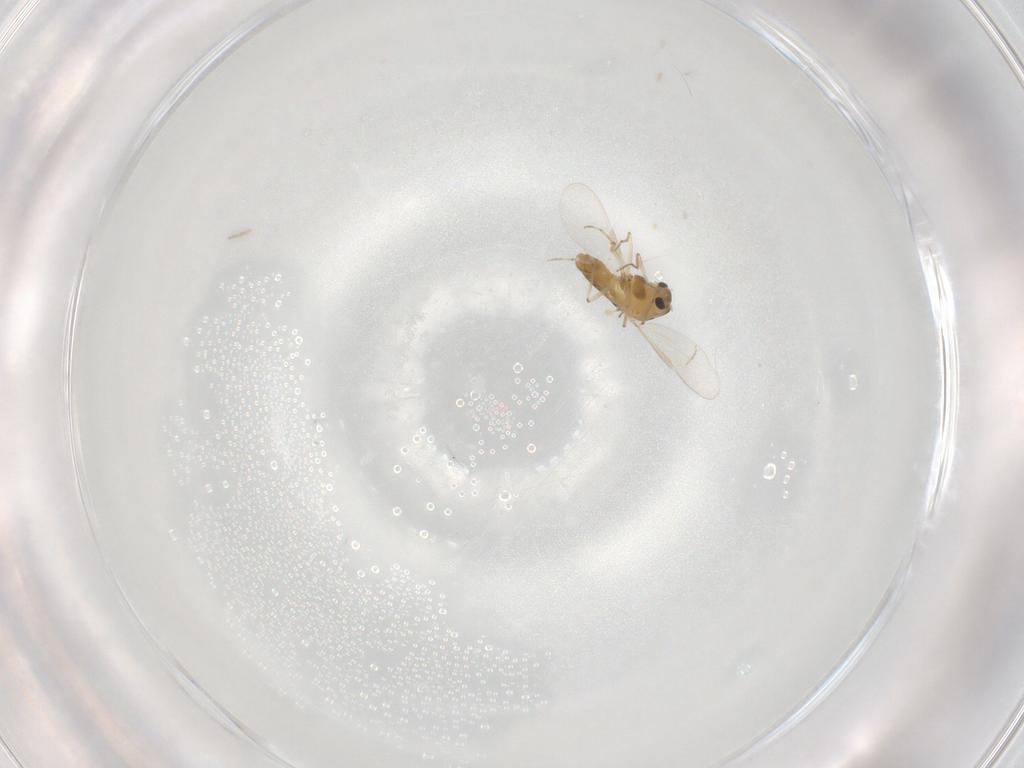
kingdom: Animalia
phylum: Arthropoda
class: Insecta
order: Diptera
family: Chironomidae
